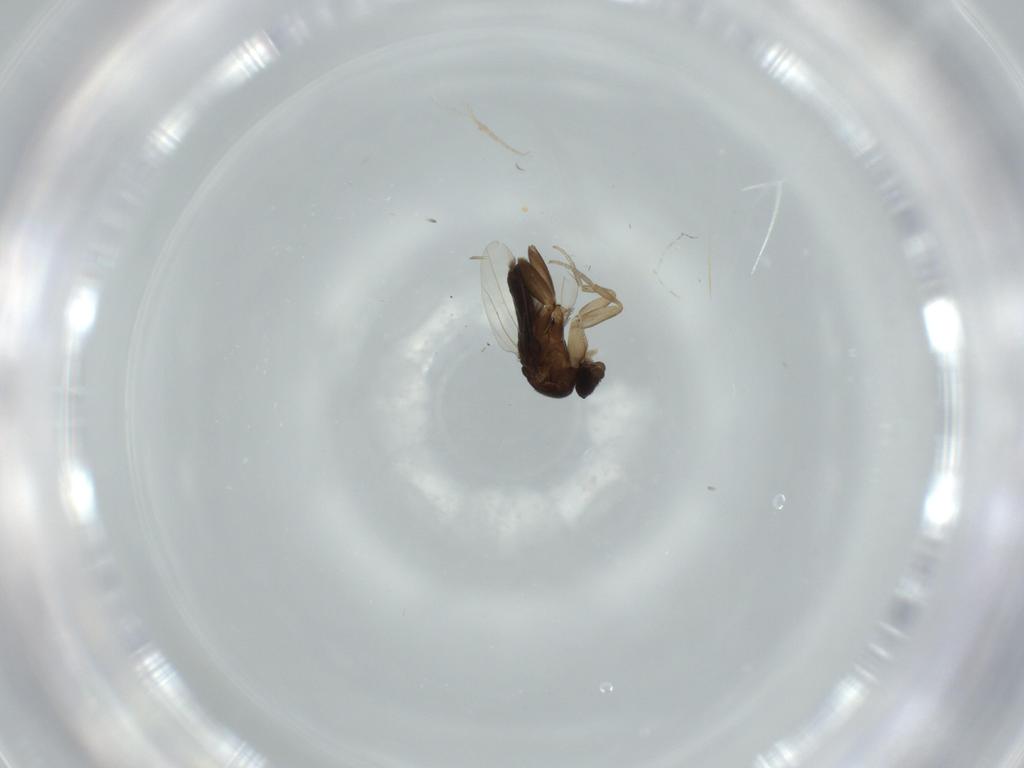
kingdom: Animalia
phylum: Arthropoda
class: Insecta
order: Diptera
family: Phoridae
